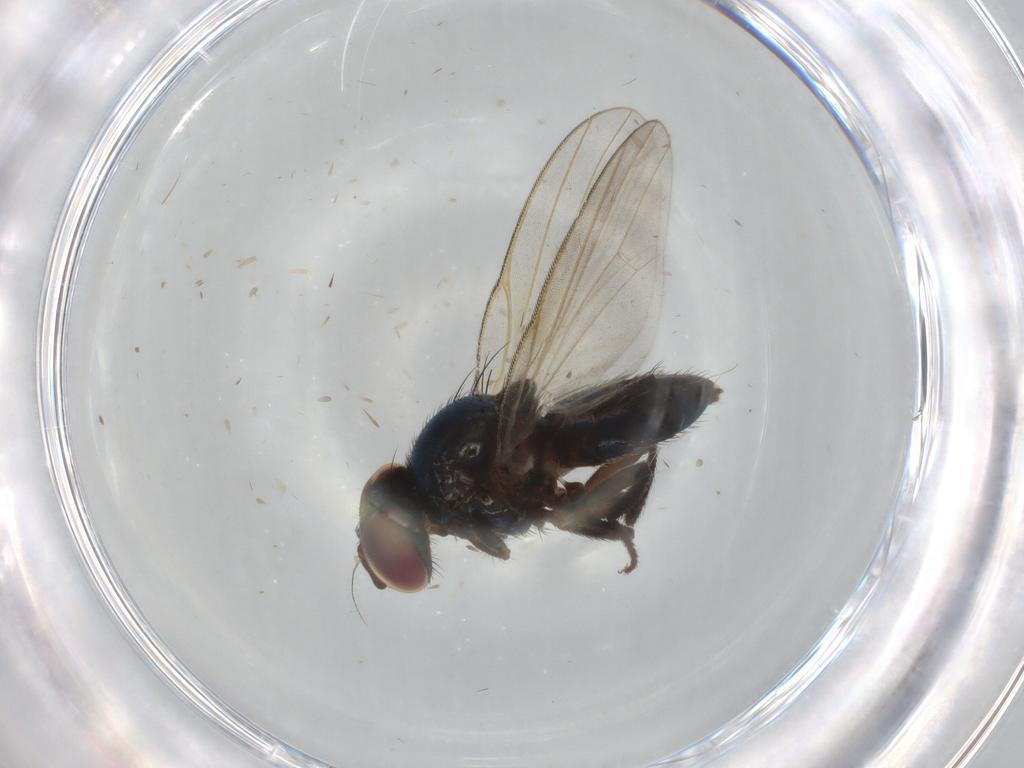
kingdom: Animalia
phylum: Arthropoda
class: Insecta
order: Diptera
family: Lonchaeidae
